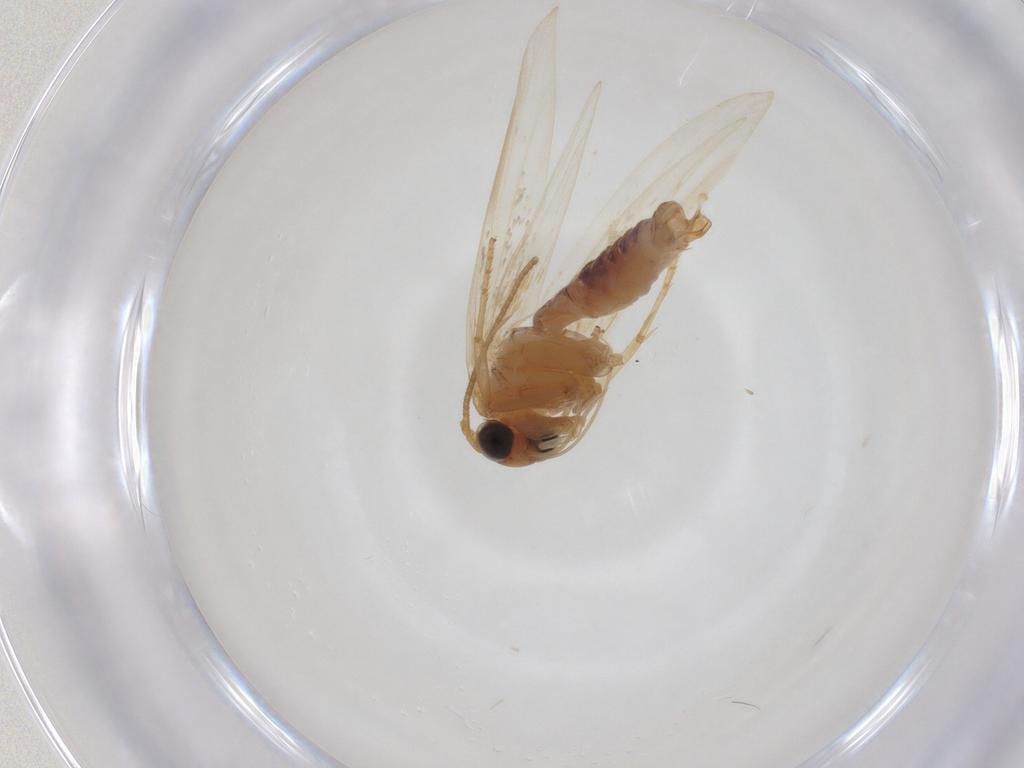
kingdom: Animalia
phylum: Arthropoda
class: Insecta
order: Lepidoptera
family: Blastobasidae
